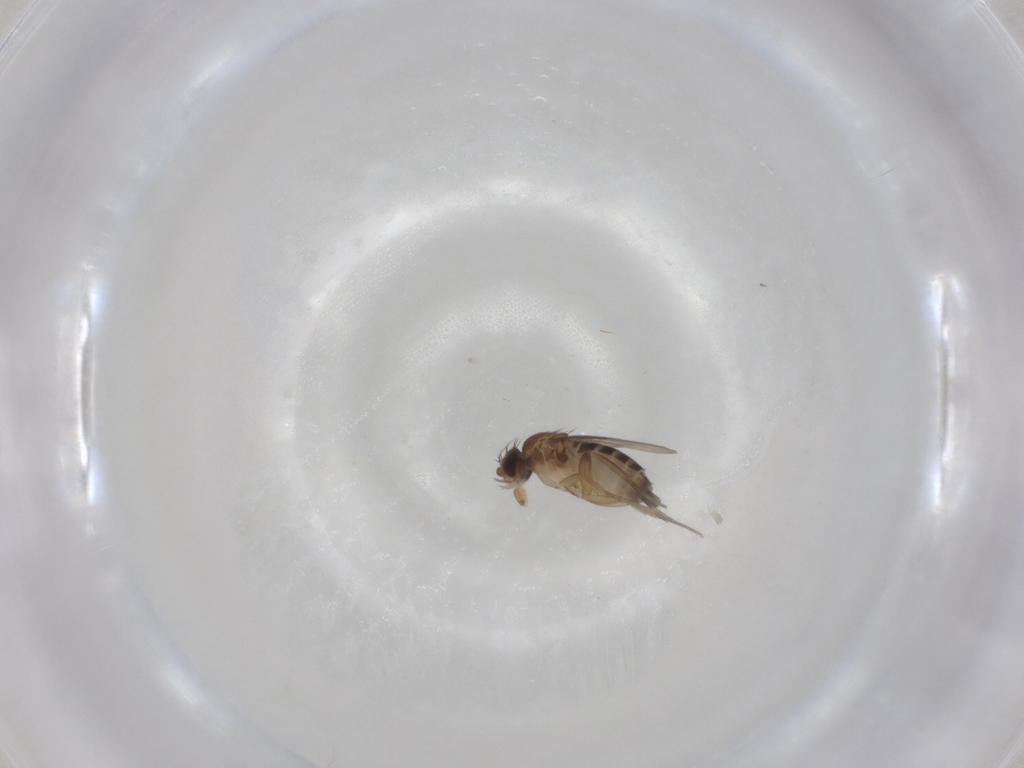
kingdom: Animalia
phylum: Arthropoda
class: Insecta
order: Diptera
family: Phoridae
